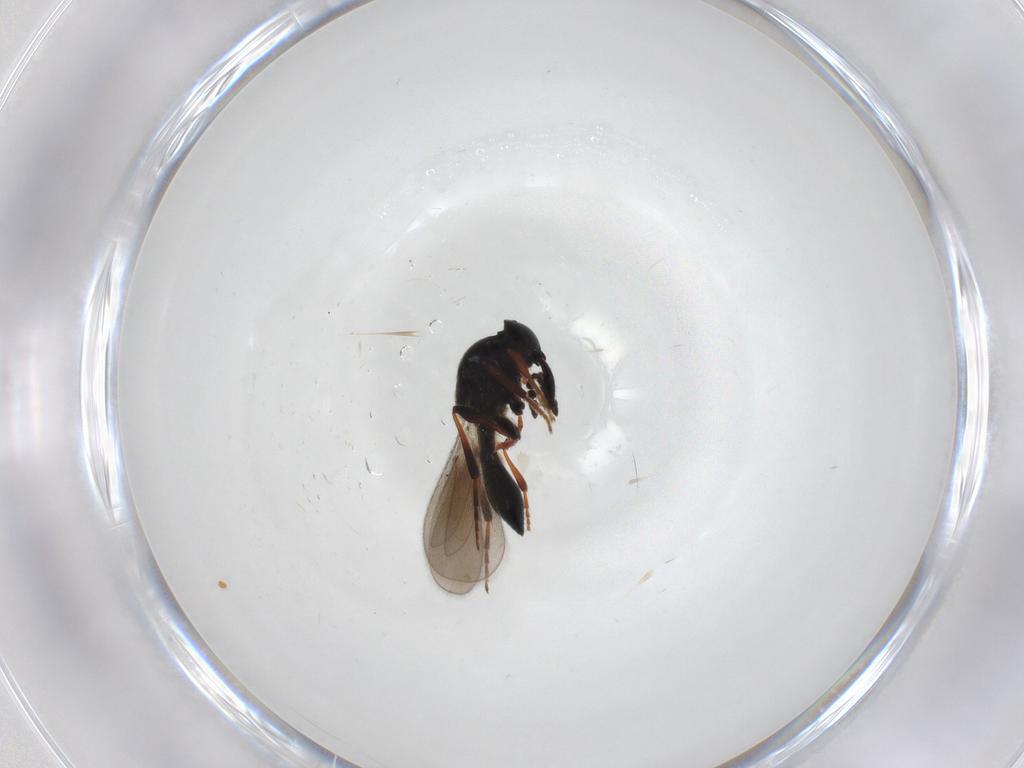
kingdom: Animalia
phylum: Arthropoda
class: Insecta
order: Hymenoptera
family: Platygastridae
